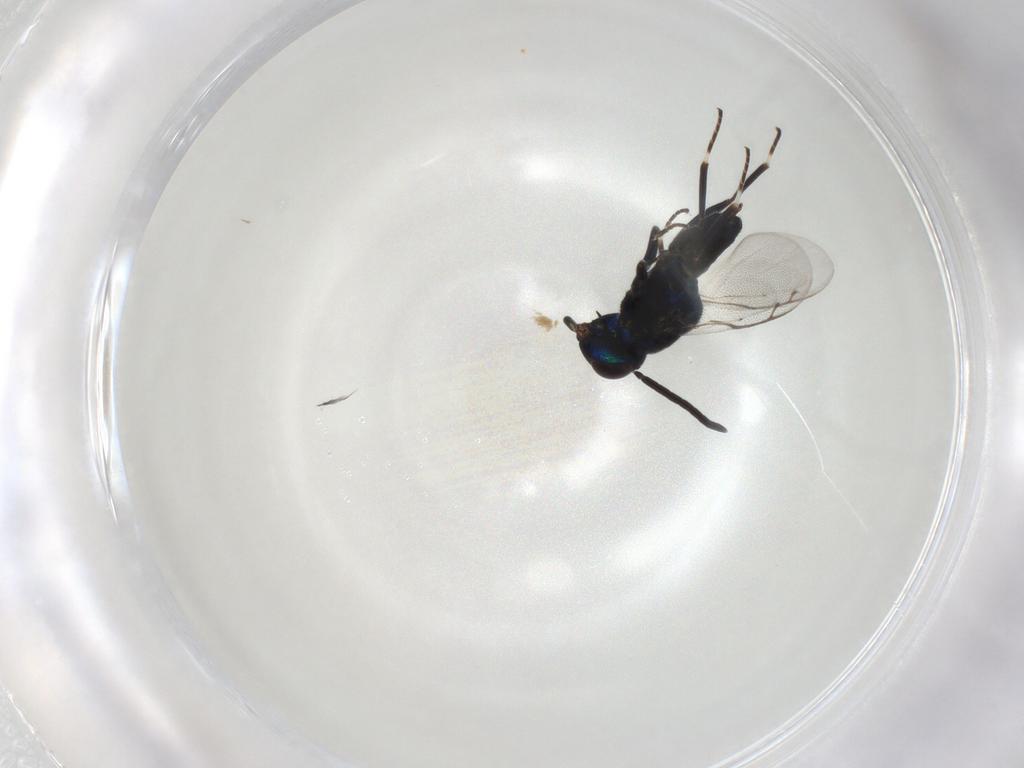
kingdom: Animalia
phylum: Arthropoda
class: Insecta
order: Hymenoptera
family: Eupelmidae
